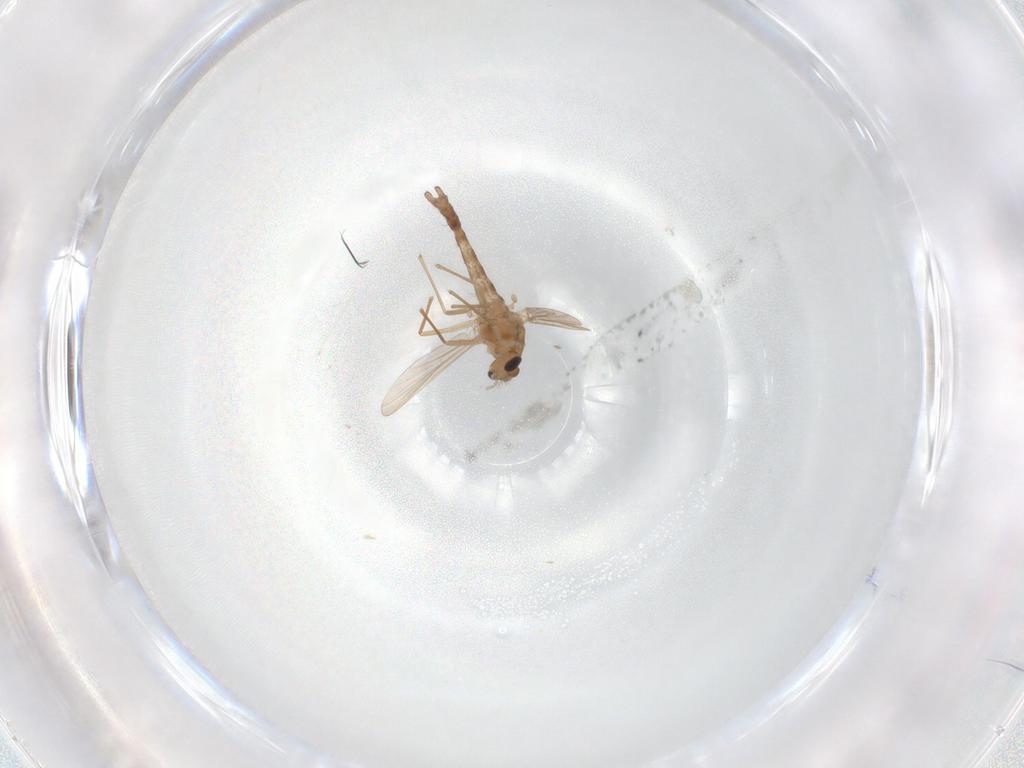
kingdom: Animalia
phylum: Arthropoda
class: Insecta
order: Diptera
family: Chironomidae
